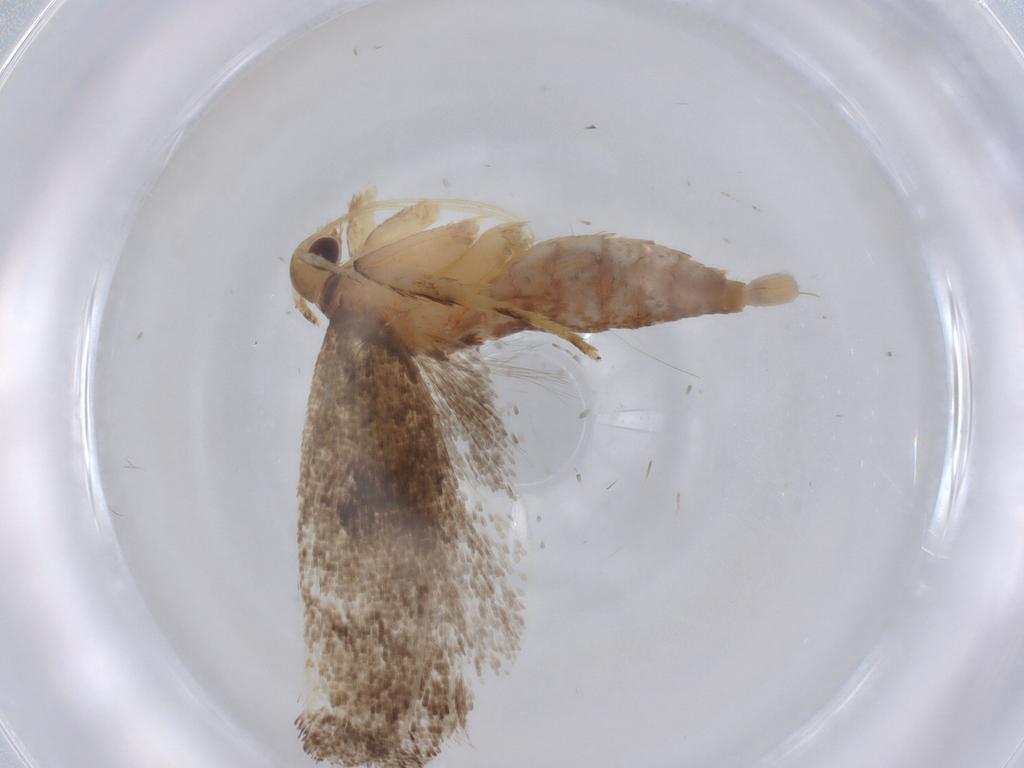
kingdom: Animalia
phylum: Arthropoda
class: Insecta
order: Lepidoptera
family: Lecithoceridae
